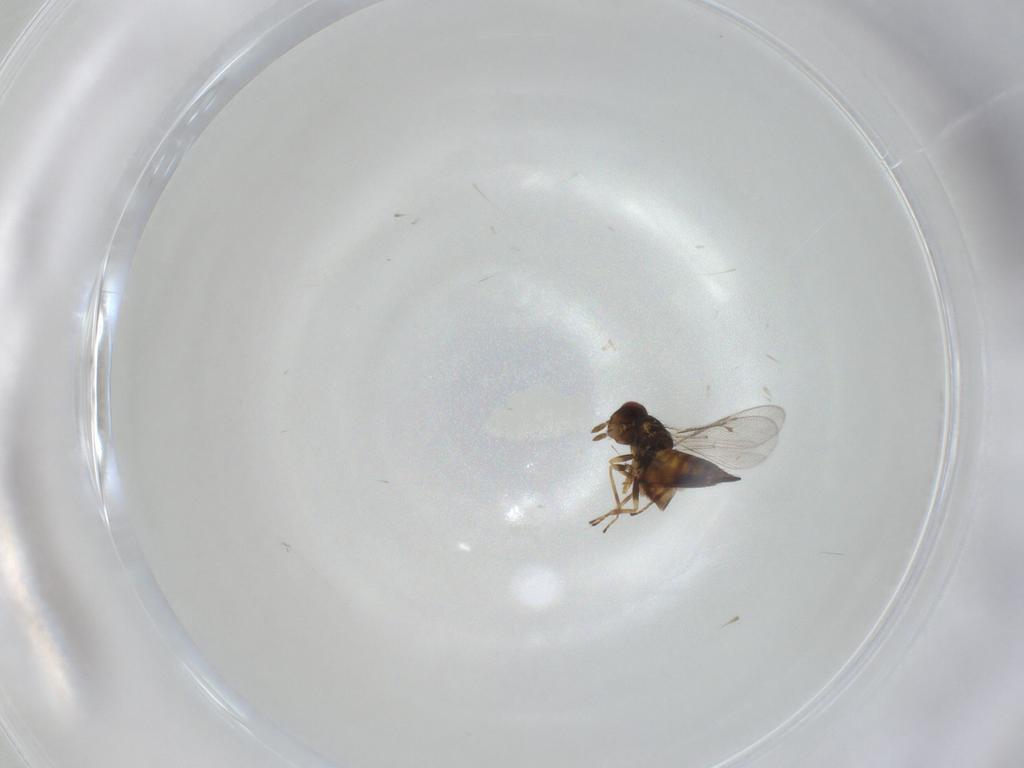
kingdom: Animalia
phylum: Arthropoda
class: Insecta
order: Hymenoptera
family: Eulophidae
